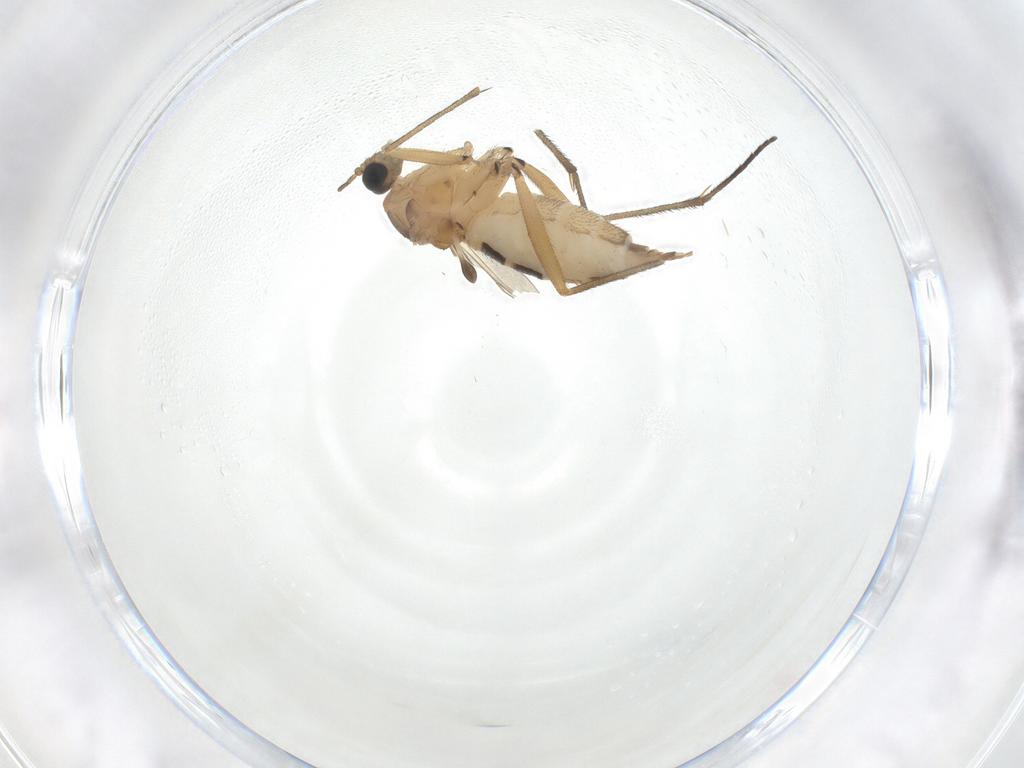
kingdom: Animalia
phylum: Arthropoda
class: Insecta
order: Diptera
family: Sciaridae
